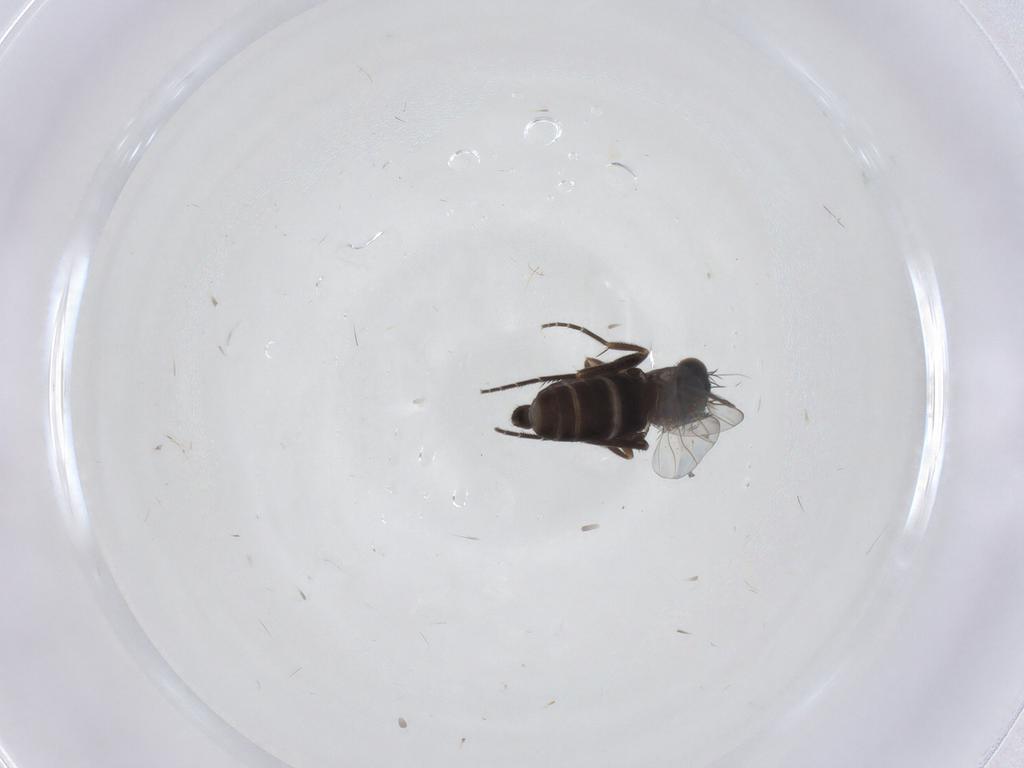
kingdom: Animalia
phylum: Arthropoda
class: Insecta
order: Diptera
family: Phoridae
